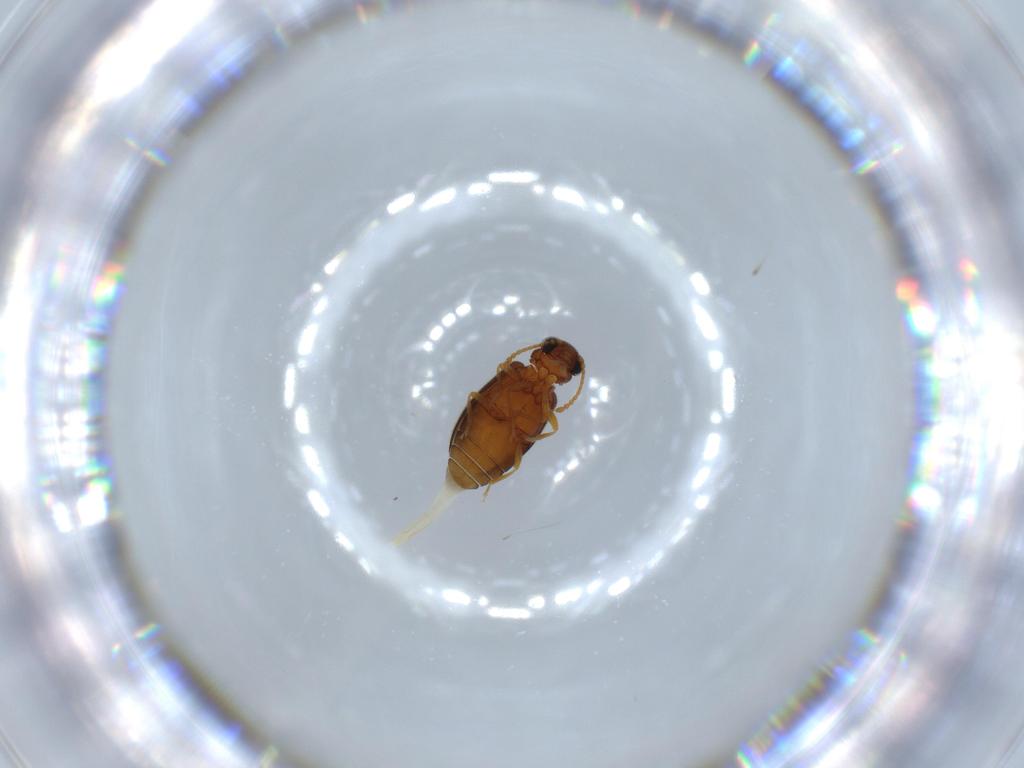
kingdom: Animalia
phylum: Arthropoda
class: Insecta
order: Coleoptera
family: Aderidae
